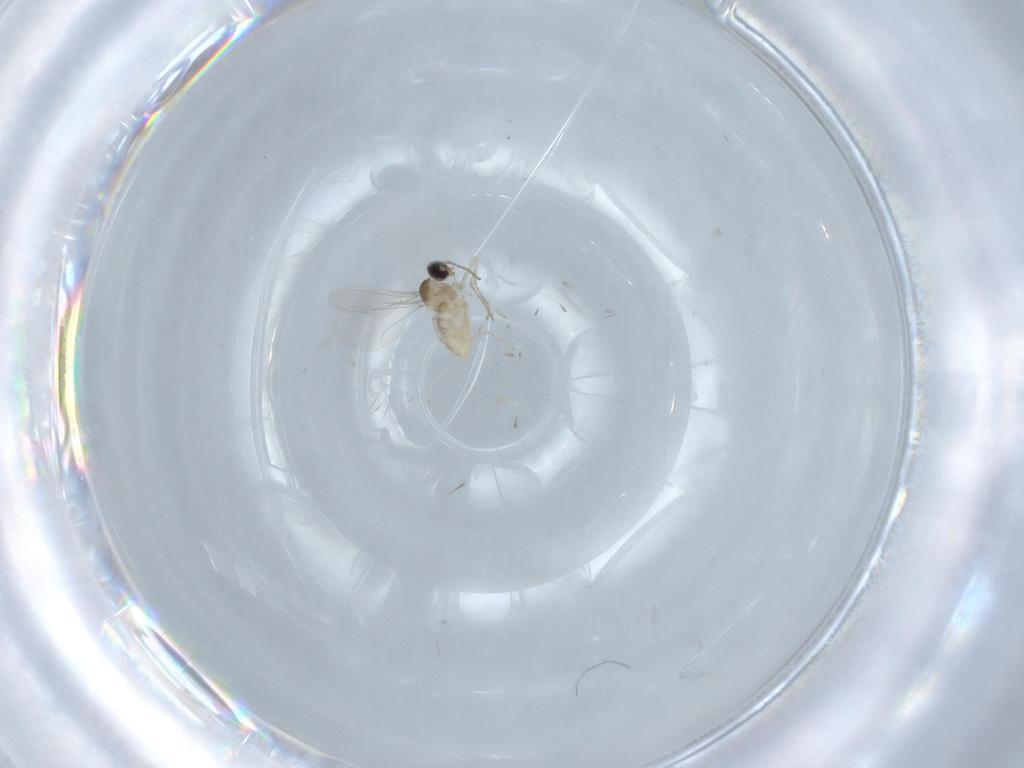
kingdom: Animalia
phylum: Arthropoda
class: Insecta
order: Diptera
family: Cecidomyiidae
